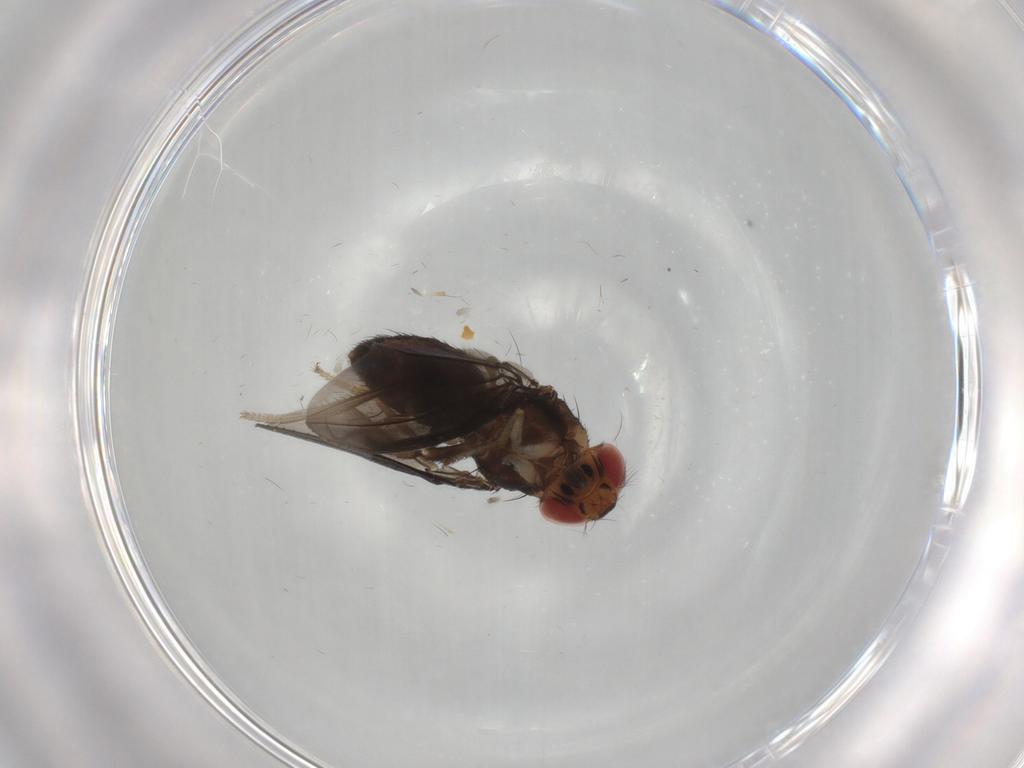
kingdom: Animalia
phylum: Arthropoda
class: Insecta
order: Diptera
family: Drosophilidae
